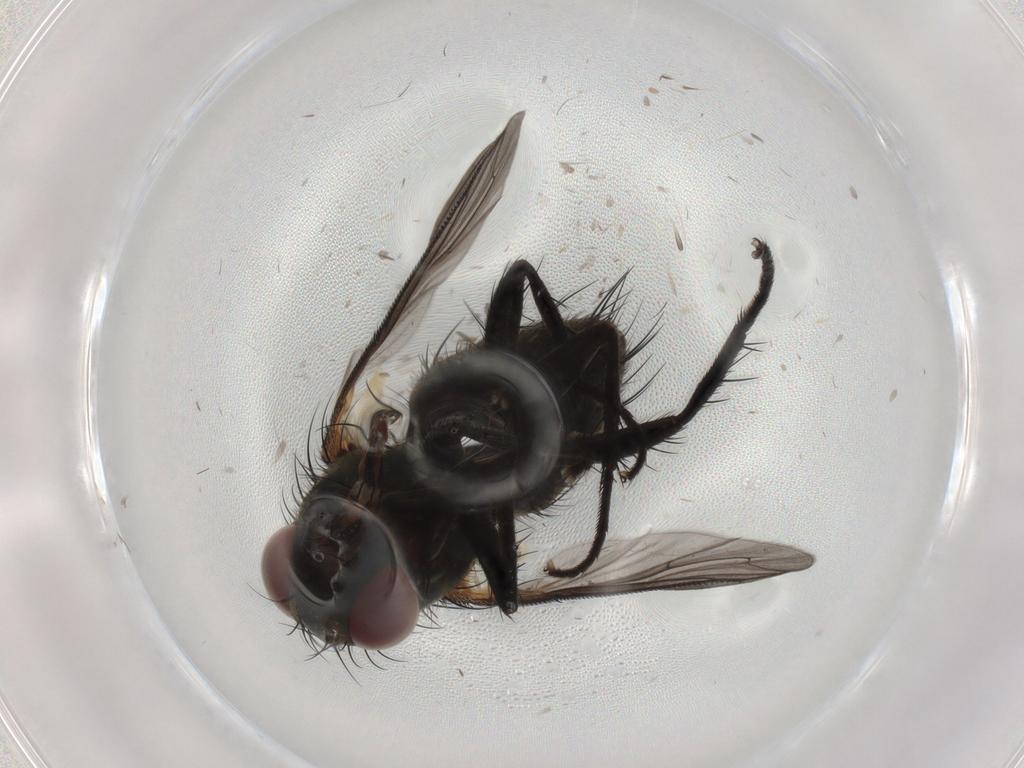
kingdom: Animalia
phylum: Arthropoda
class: Insecta
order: Diptera
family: Sarcophagidae
